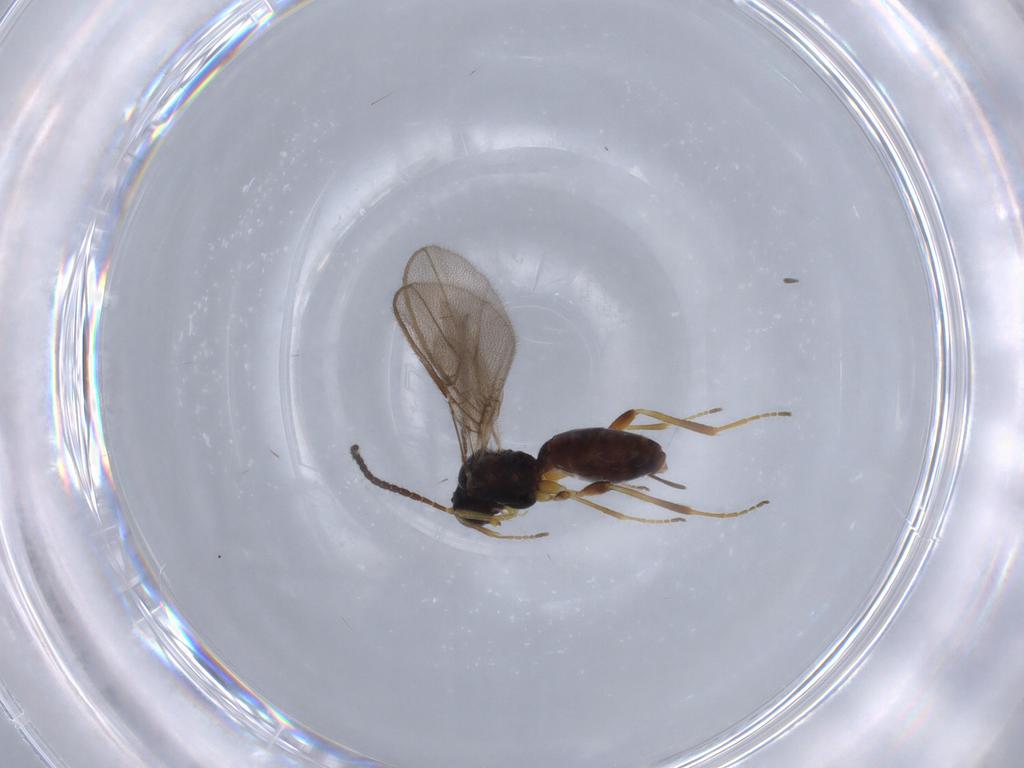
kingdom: Animalia
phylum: Arthropoda
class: Insecta
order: Hymenoptera
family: Braconidae
